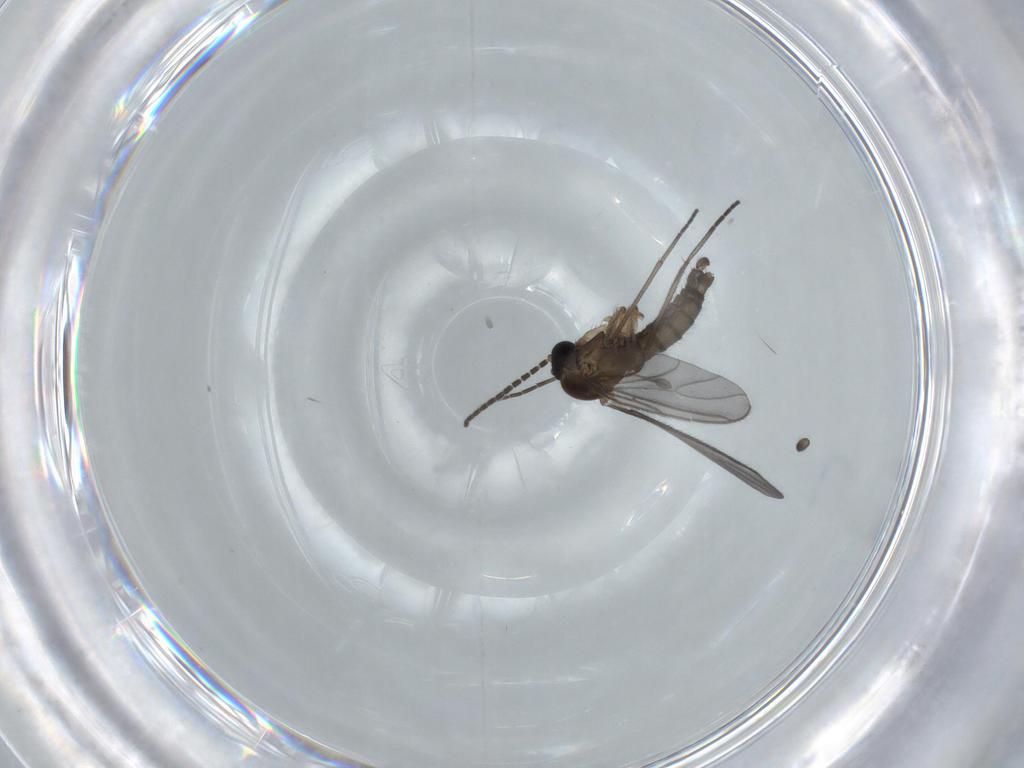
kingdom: Animalia
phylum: Arthropoda
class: Insecta
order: Diptera
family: Sciaridae
